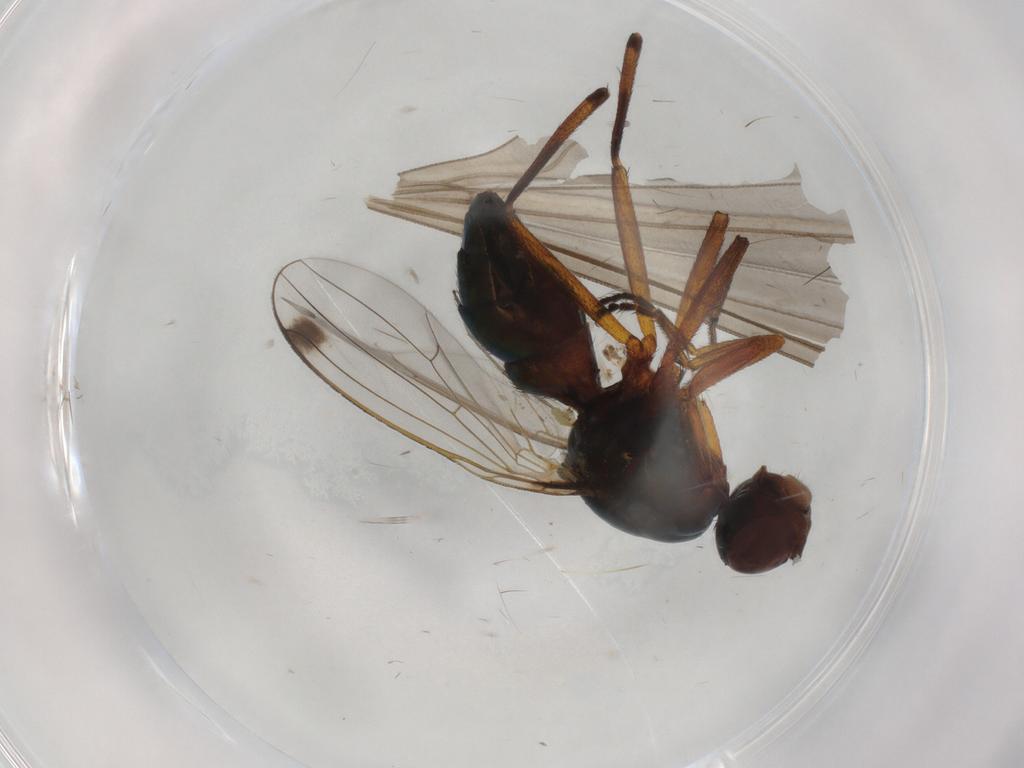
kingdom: Animalia
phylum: Arthropoda
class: Insecta
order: Diptera
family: Sepsidae
